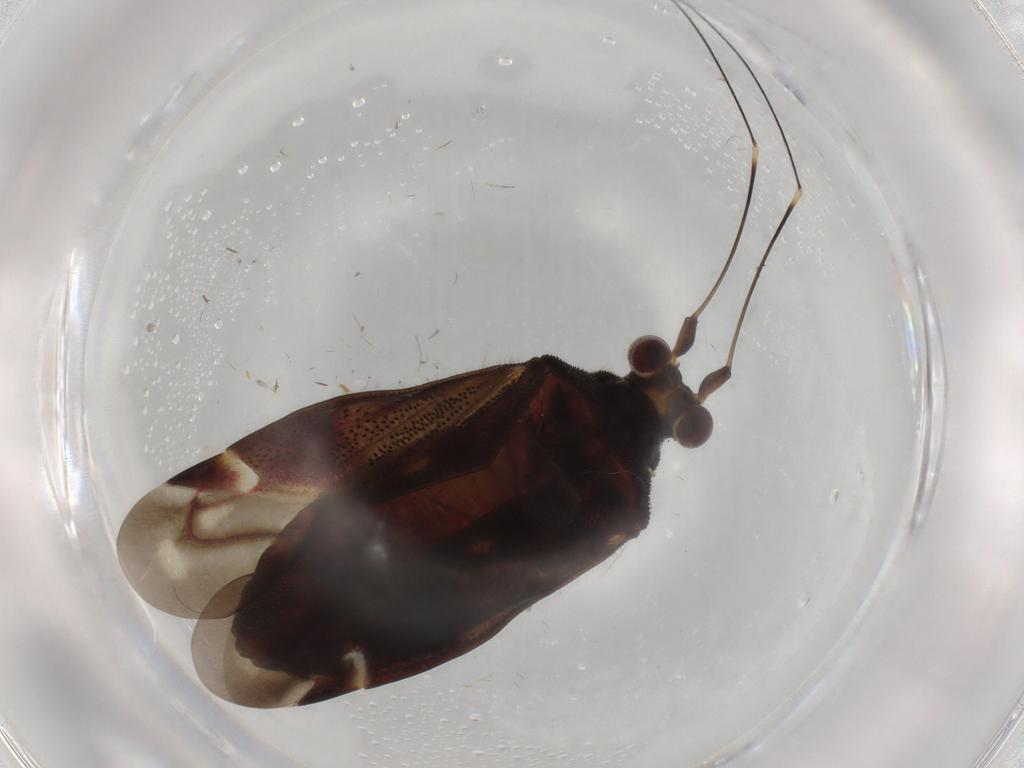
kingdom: Animalia
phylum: Arthropoda
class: Insecta
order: Hemiptera
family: Miridae
